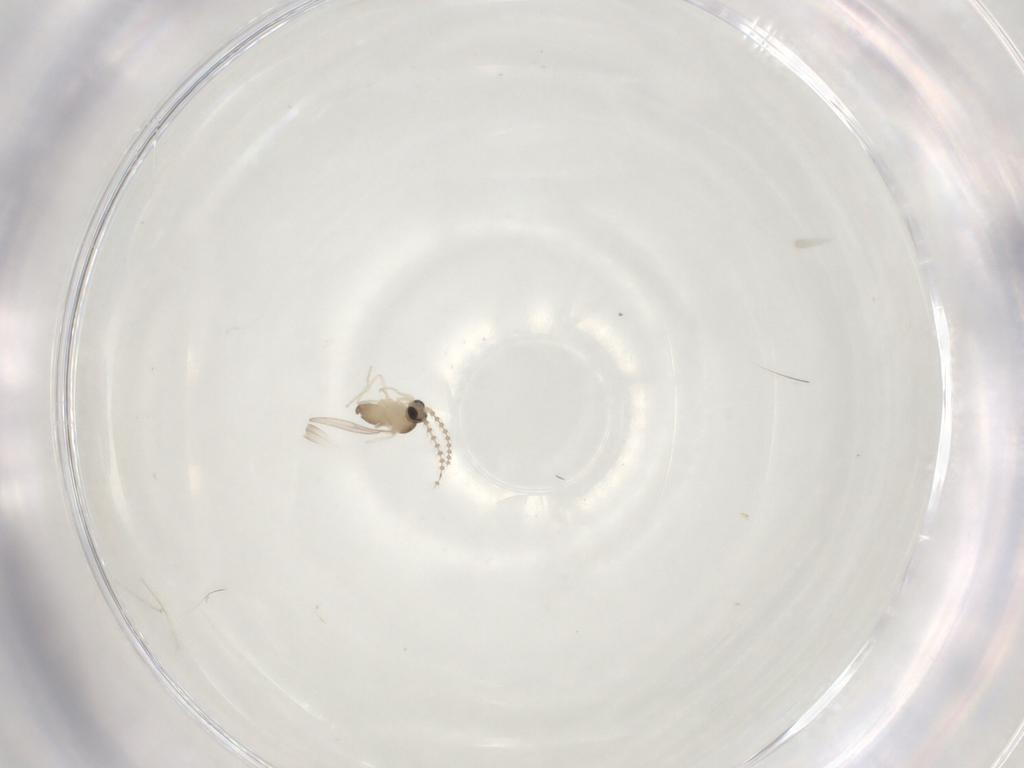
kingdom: Animalia
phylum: Arthropoda
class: Insecta
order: Diptera
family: Cecidomyiidae
